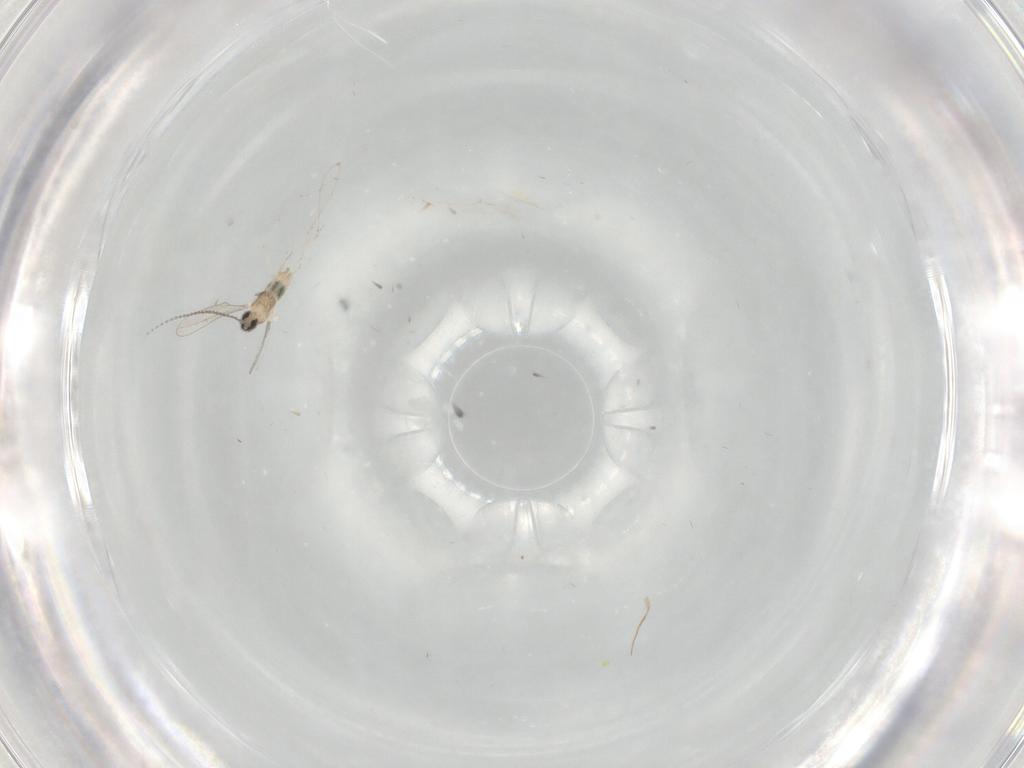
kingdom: Animalia
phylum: Arthropoda
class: Insecta
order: Diptera
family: Cecidomyiidae
